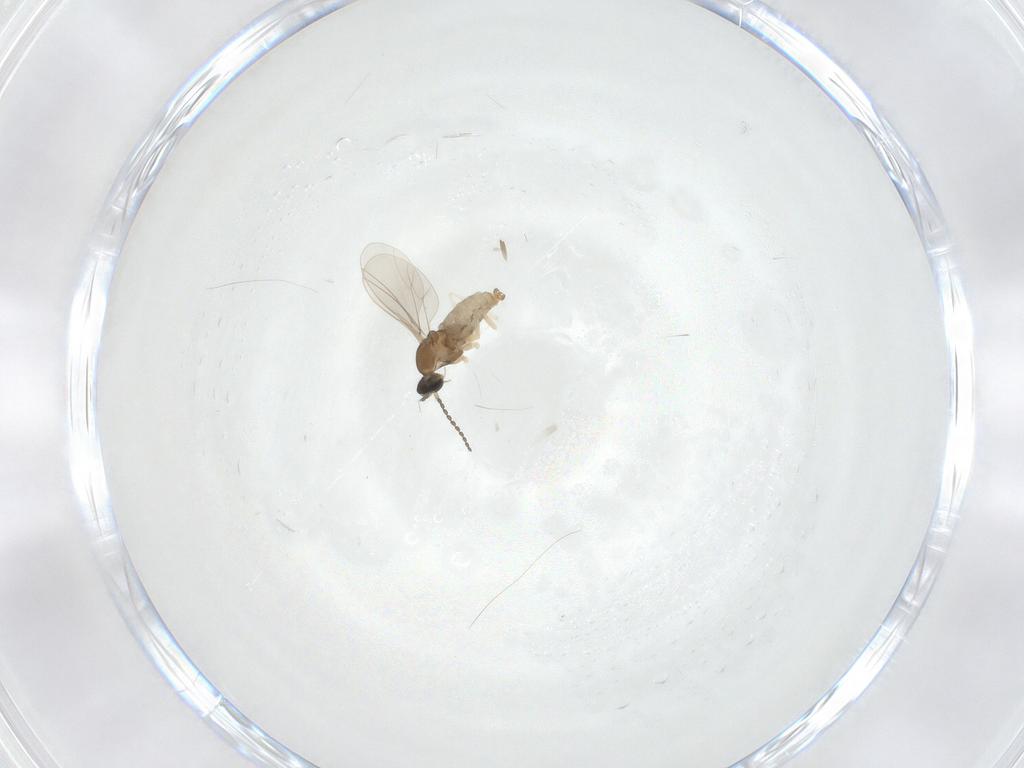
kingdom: Animalia
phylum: Arthropoda
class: Insecta
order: Diptera
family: Cecidomyiidae
